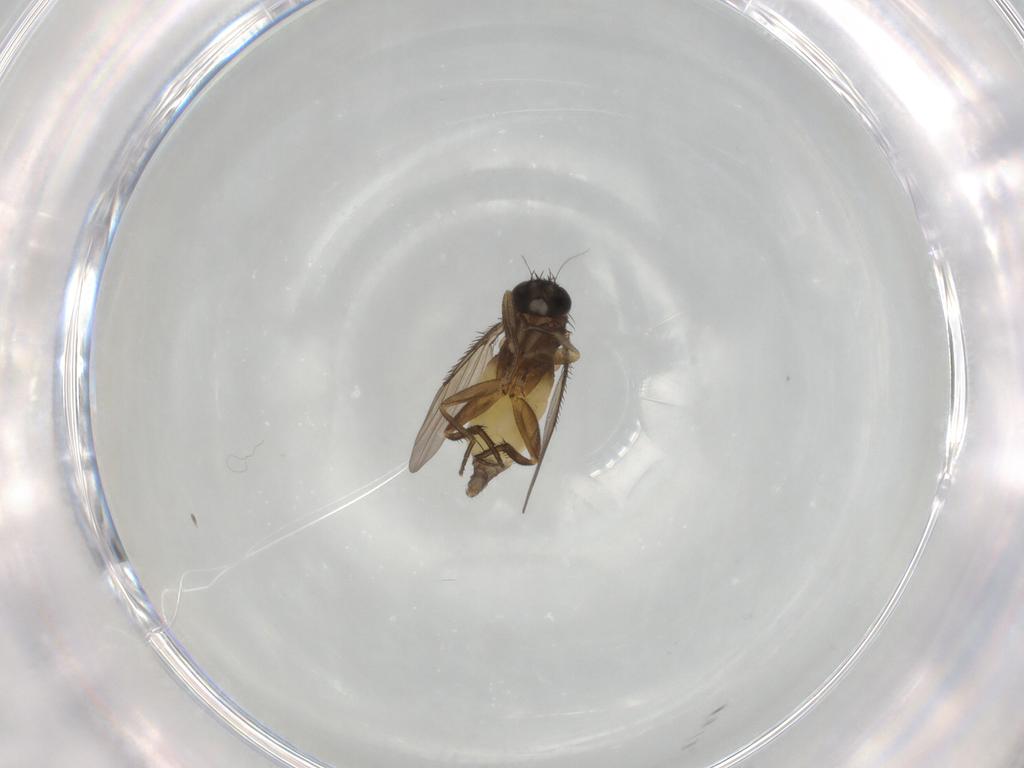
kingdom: Animalia
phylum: Arthropoda
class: Insecta
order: Diptera
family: Phoridae
